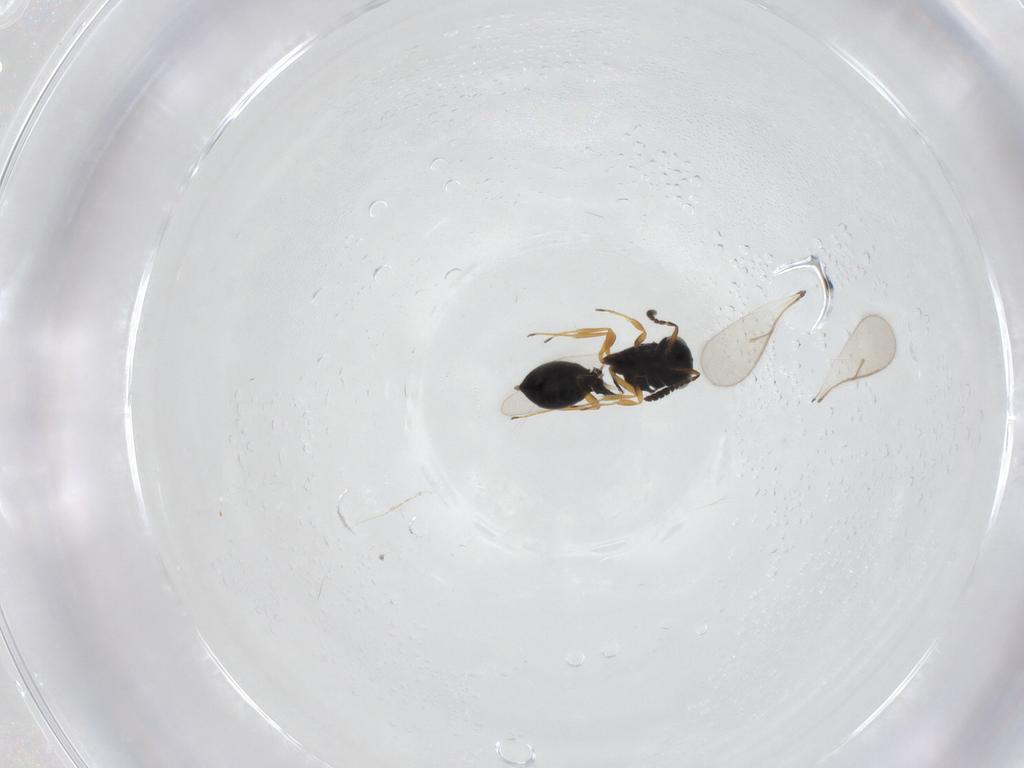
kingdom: Animalia
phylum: Arthropoda
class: Insecta
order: Hymenoptera
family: Scelionidae
